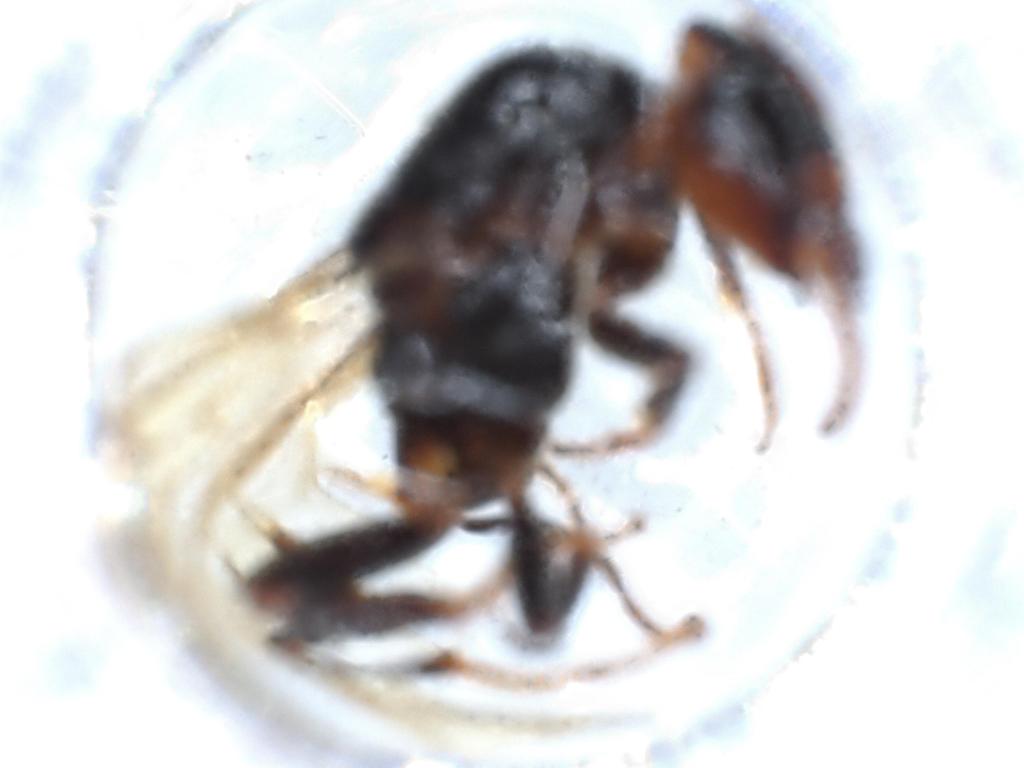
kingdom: Animalia
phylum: Arthropoda
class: Insecta
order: Hymenoptera
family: Formicidae
